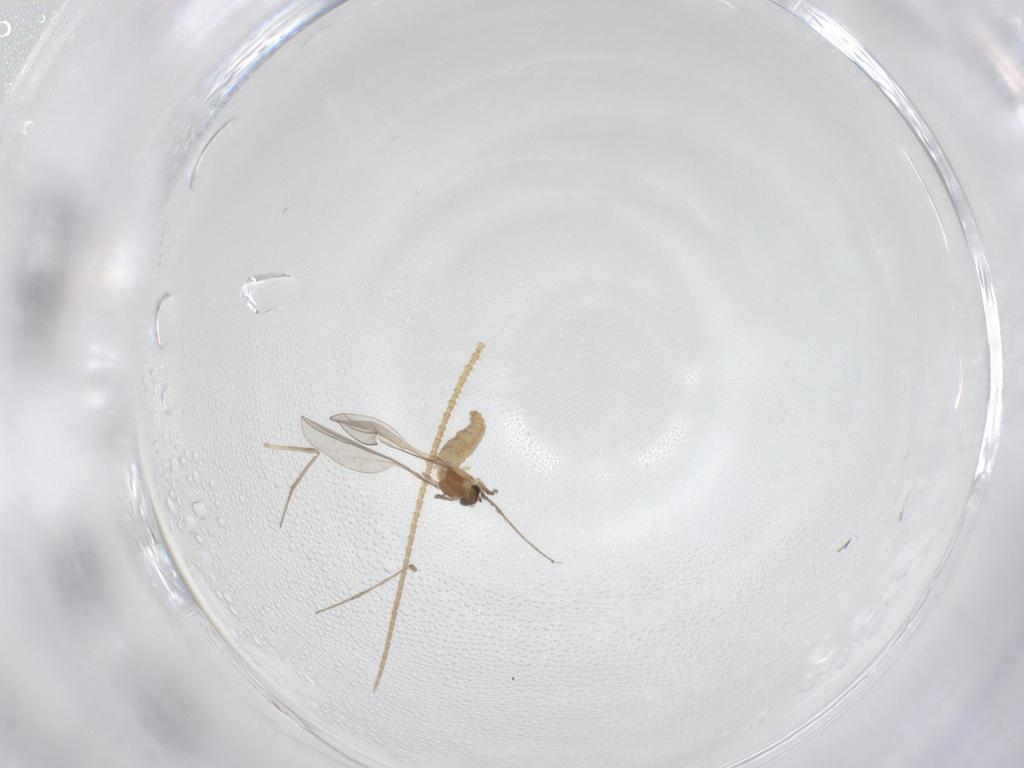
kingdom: Animalia
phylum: Arthropoda
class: Insecta
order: Diptera
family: Cecidomyiidae
